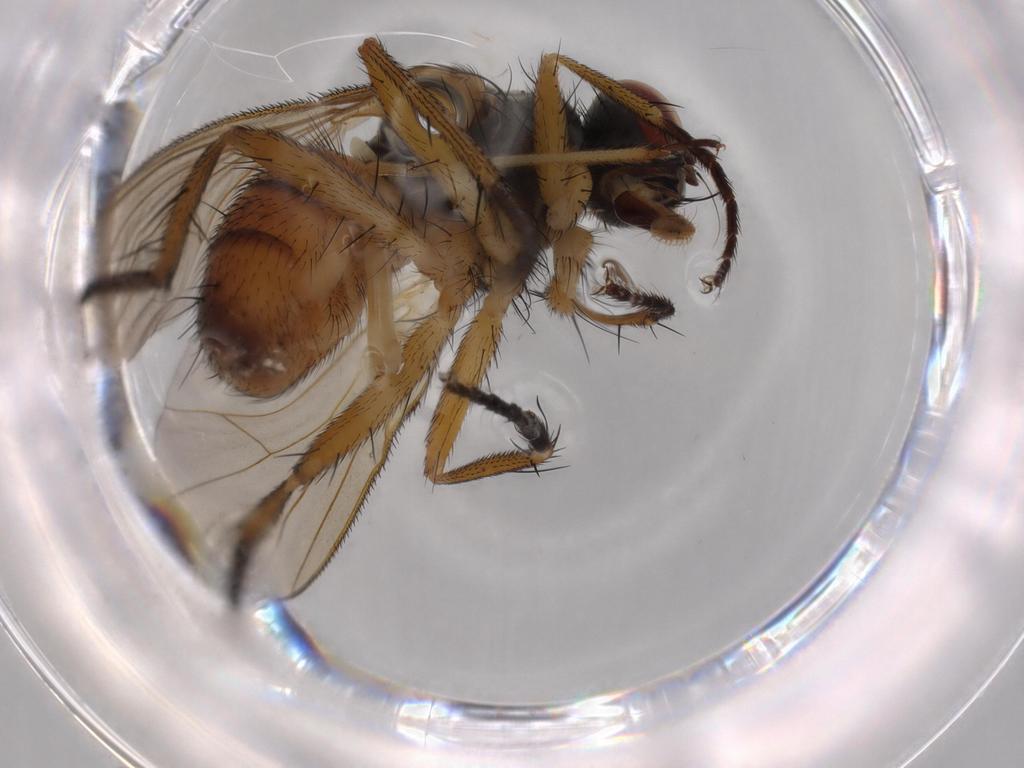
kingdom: Animalia
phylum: Arthropoda
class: Insecta
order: Diptera
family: Muscidae
